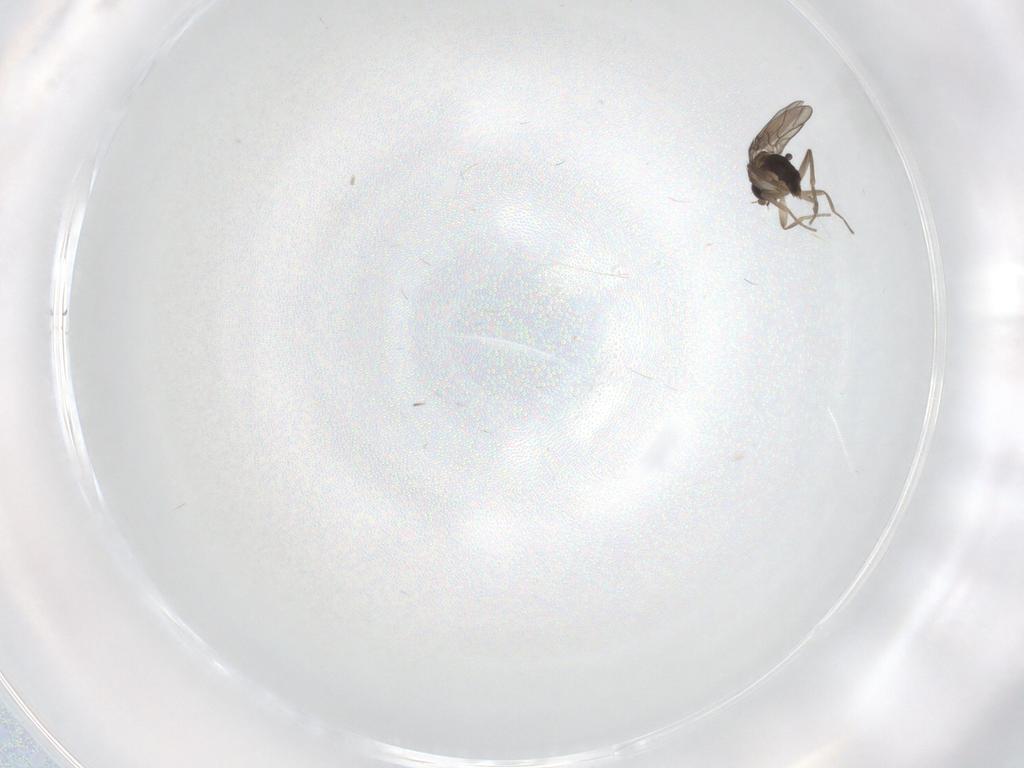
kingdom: Animalia
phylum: Arthropoda
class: Insecta
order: Diptera
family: Phoridae
